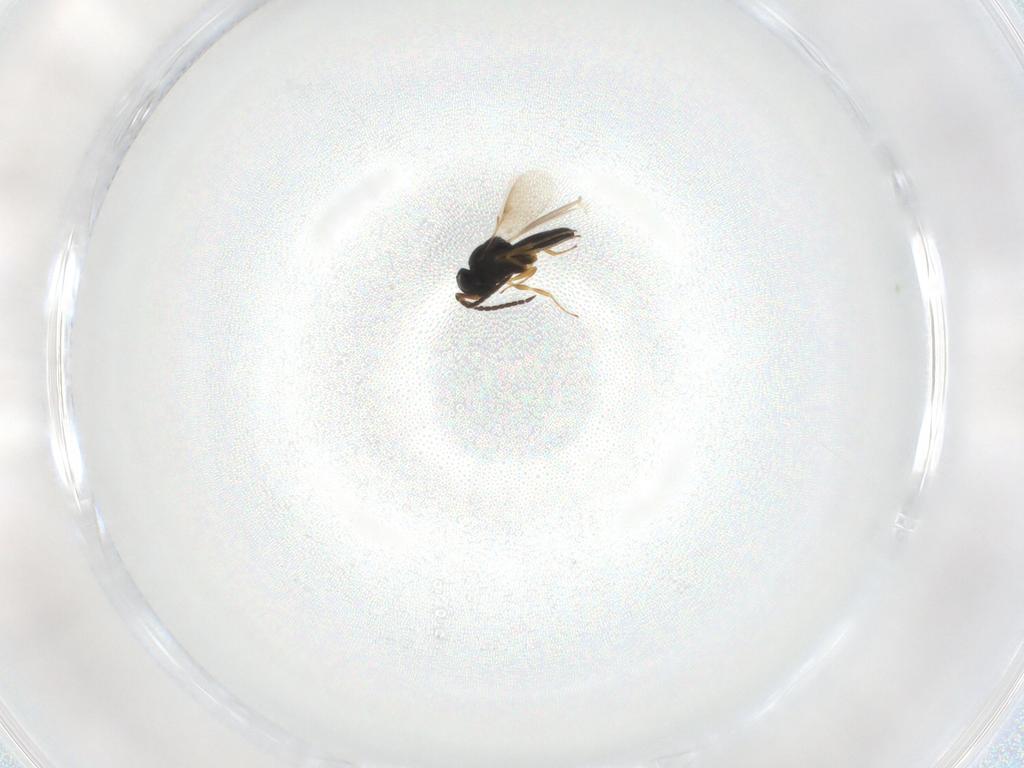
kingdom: Animalia
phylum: Arthropoda
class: Insecta
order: Hymenoptera
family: Scelionidae
